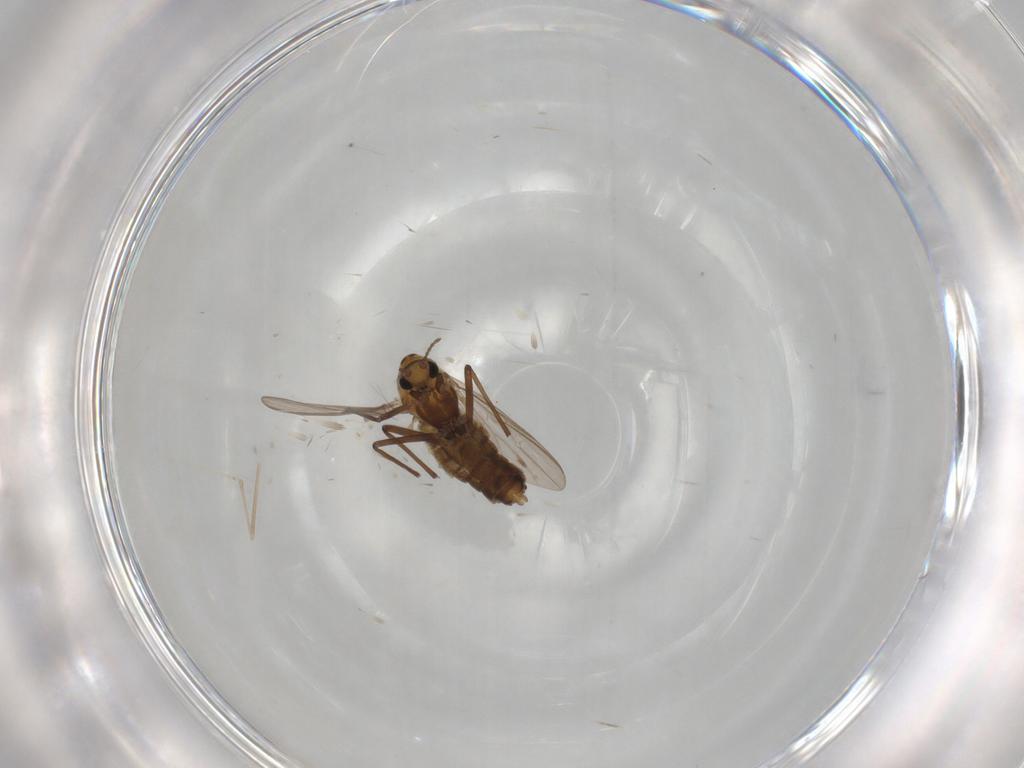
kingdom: Animalia
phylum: Arthropoda
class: Insecta
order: Diptera
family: Chironomidae
